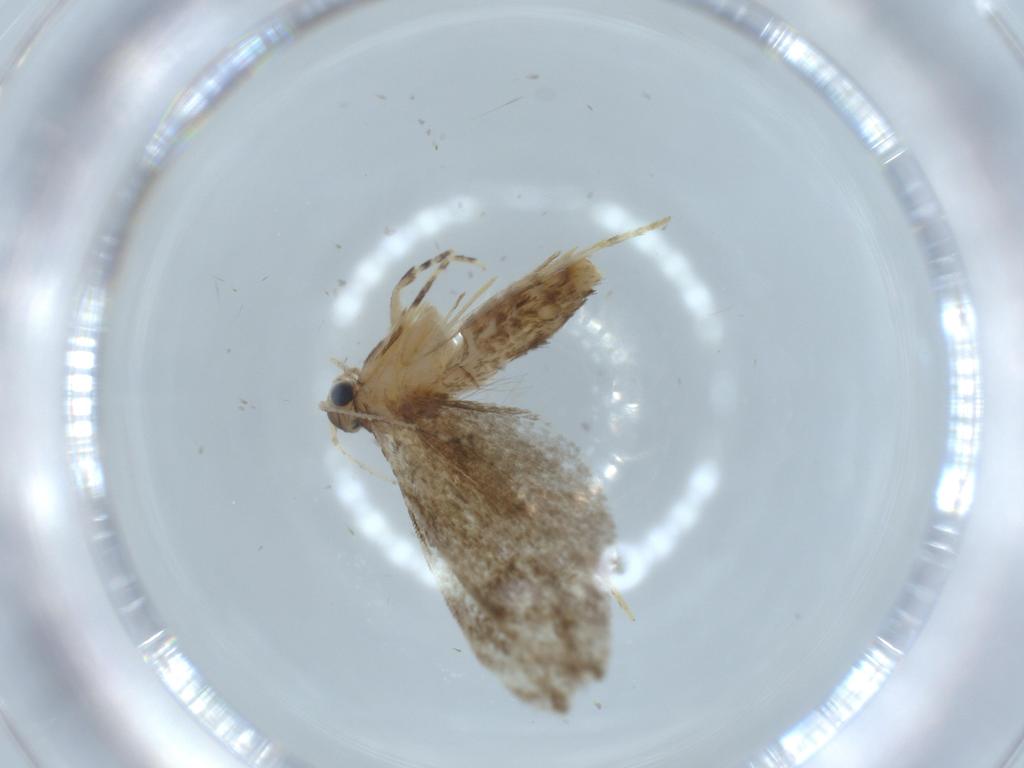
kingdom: Animalia
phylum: Arthropoda
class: Insecta
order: Lepidoptera
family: Tineidae
